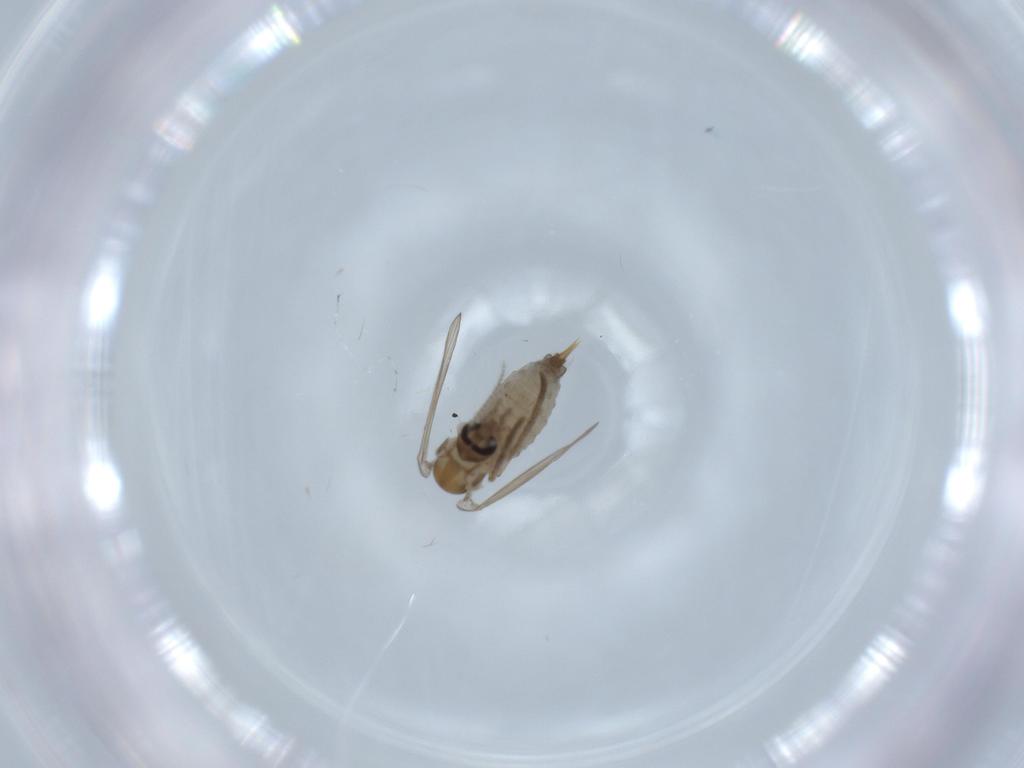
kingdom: Animalia
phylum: Arthropoda
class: Insecta
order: Diptera
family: Psychodidae
